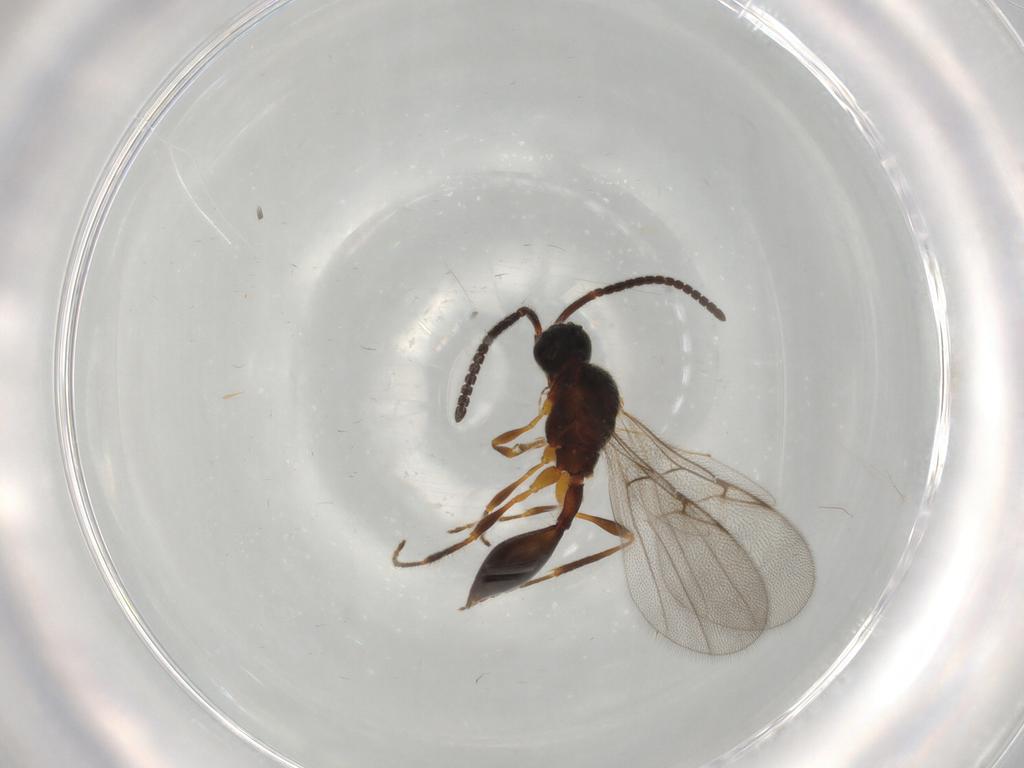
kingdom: Animalia
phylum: Arthropoda
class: Insecta
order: Hymenoptera
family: Diapriidae
